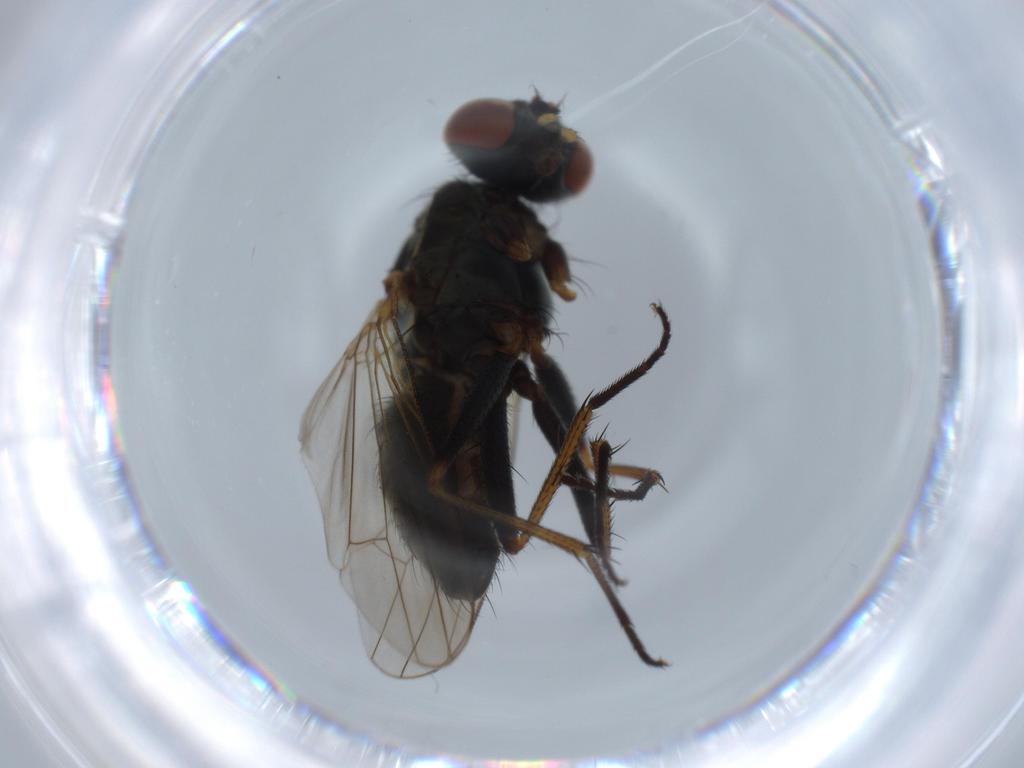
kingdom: Animalia
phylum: Arthropoda
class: Insecta
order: Diptera
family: Muscidae
